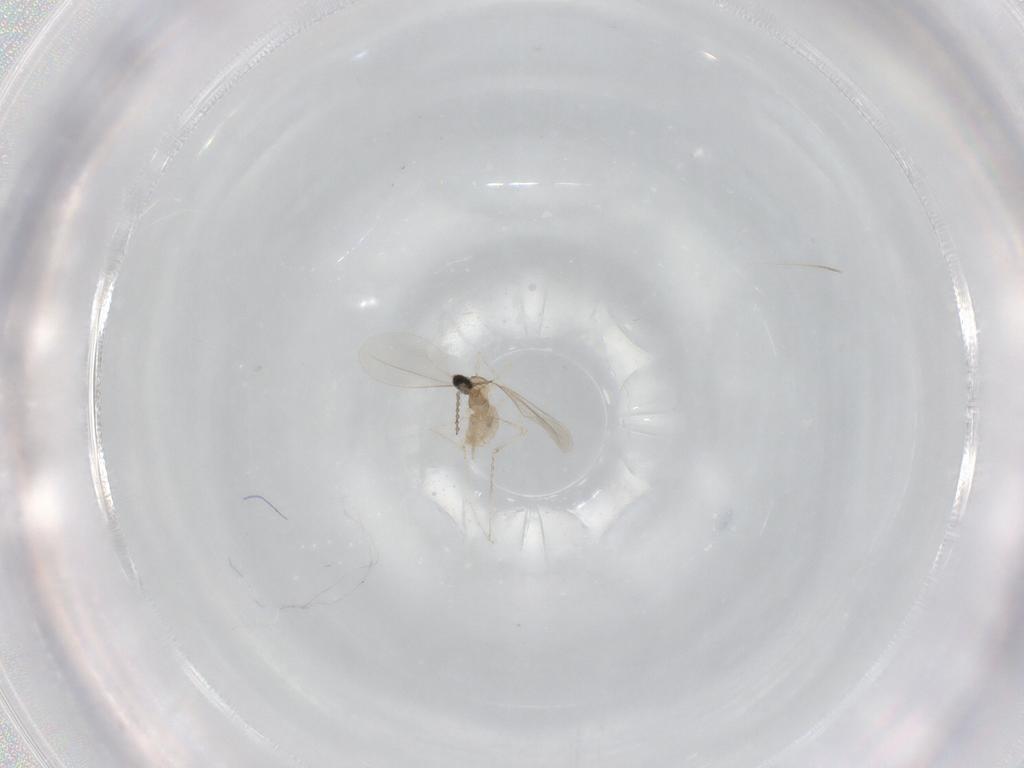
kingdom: Animalia
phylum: Arthropoda
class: Insecta
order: Diptera
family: Cecidomyiidae
